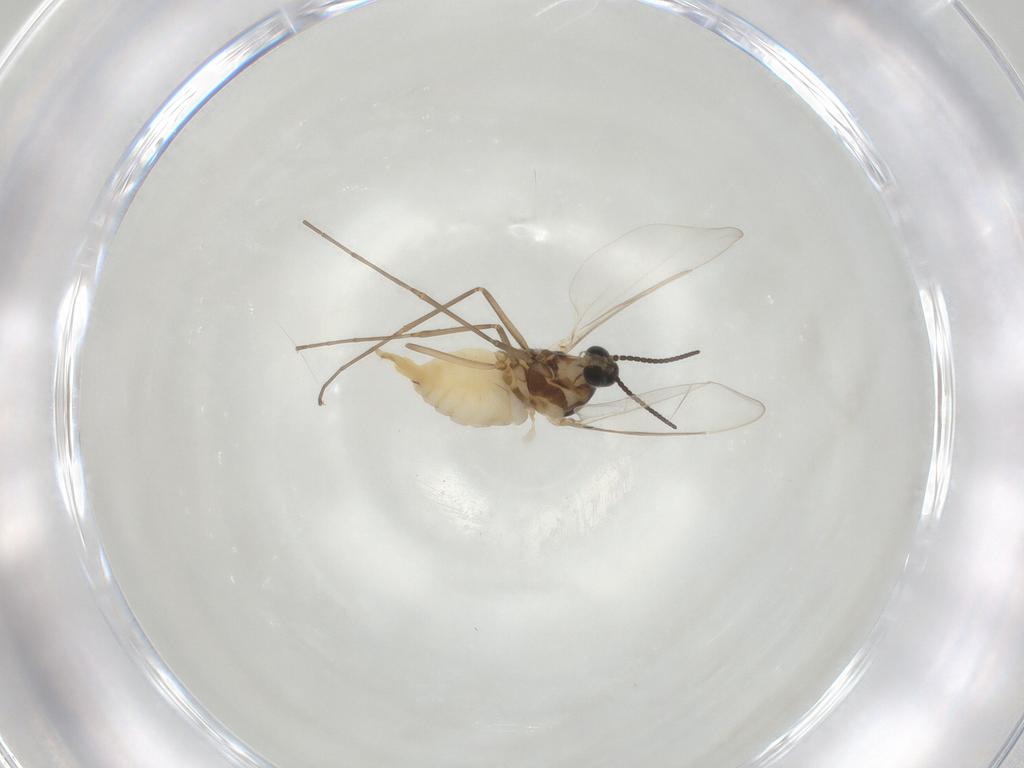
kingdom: Animalia
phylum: Arthropoda
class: Insecta
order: Diptera
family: Cecidomyiidae
